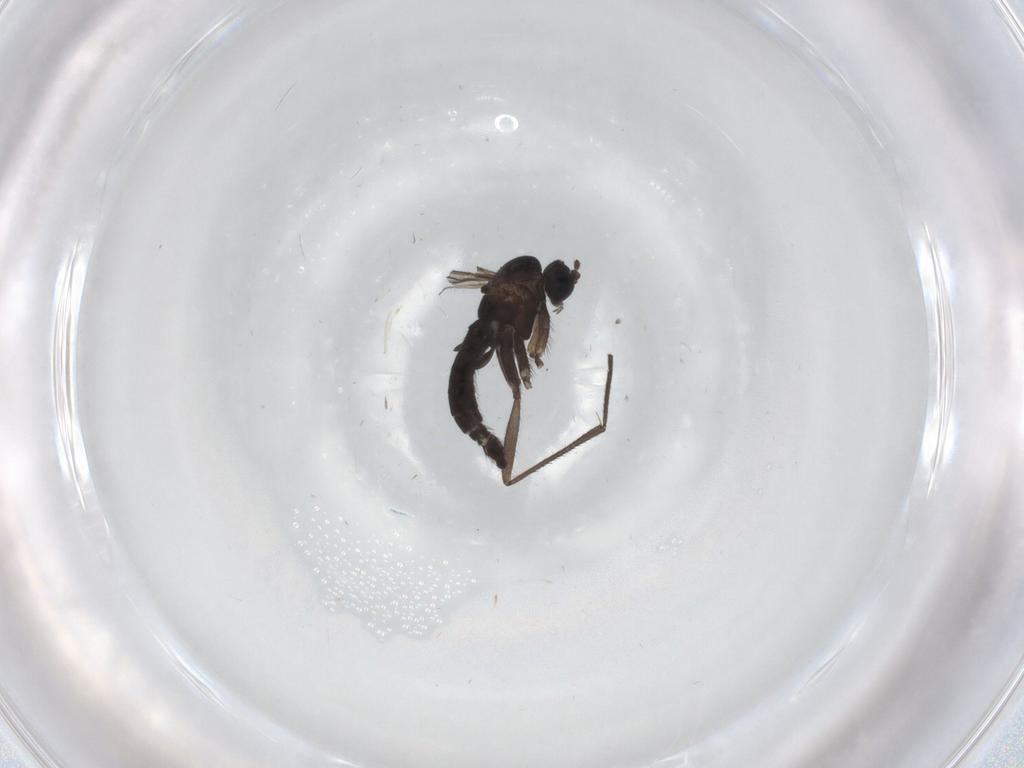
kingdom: Animalia
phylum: Arthropoda
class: Insecta
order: Diptera
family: Sciaridae
